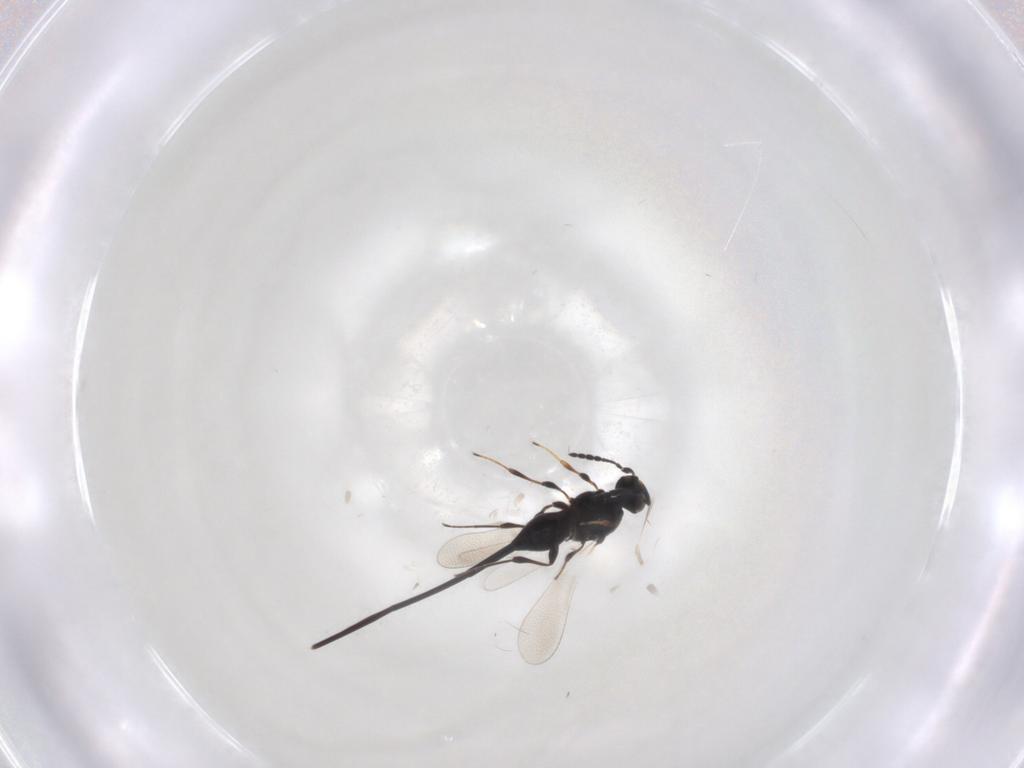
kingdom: Animalia
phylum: Arthropoda
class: Insecta
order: Hymenoptera
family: Platygastridae
